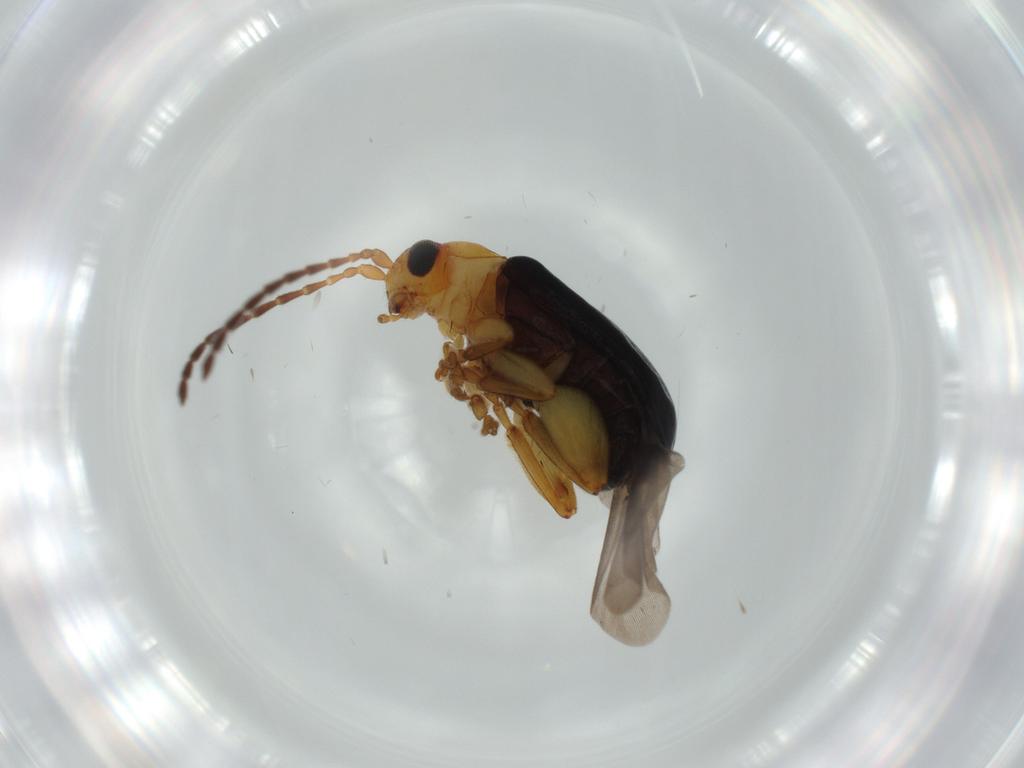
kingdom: Animalia
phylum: Arthropoda
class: Insecta
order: Coleoptera
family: Chrysomelidae
